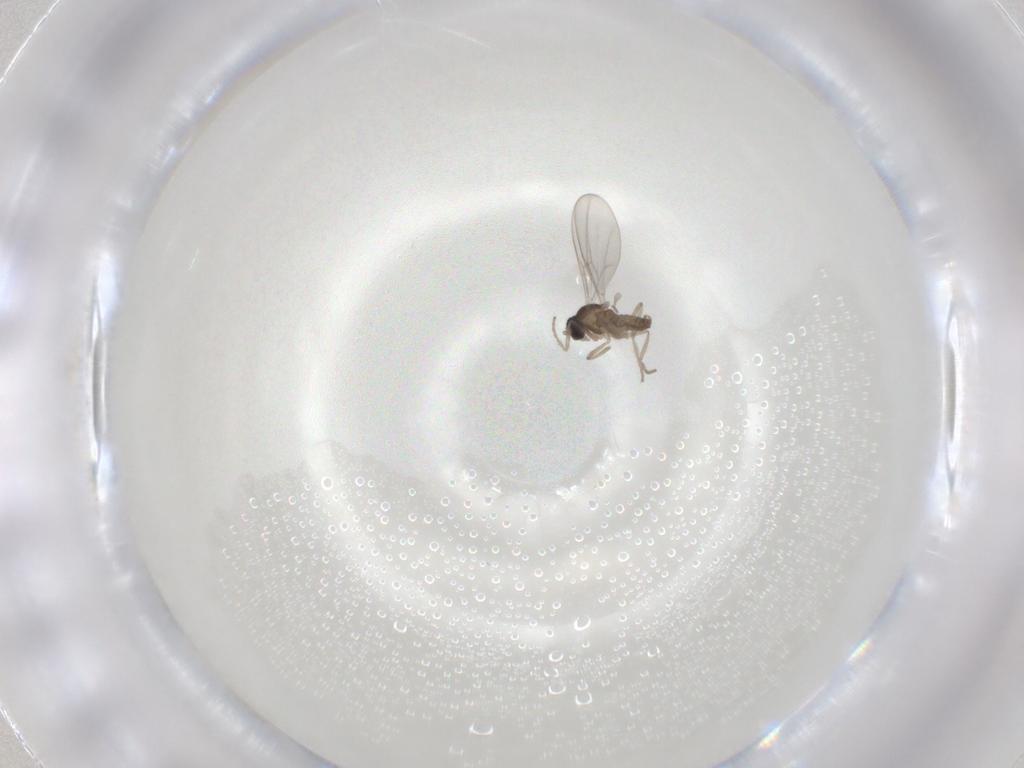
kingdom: Animalia
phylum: Arthropoda
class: Insecta
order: Diptera
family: Cecidomyiidae
